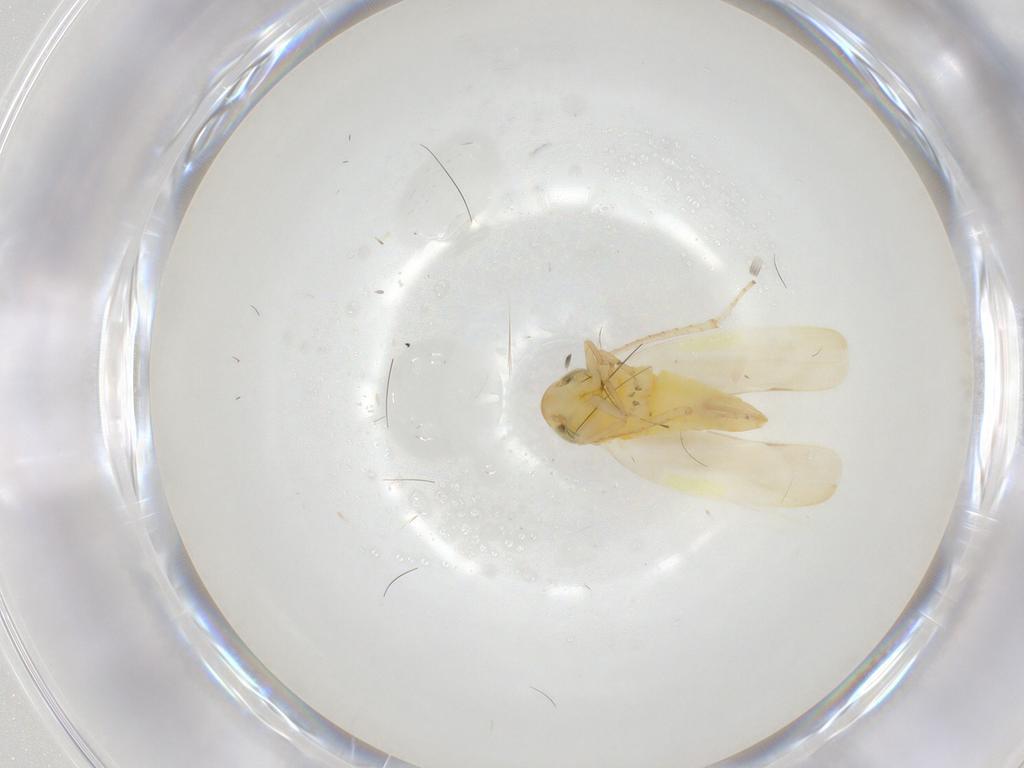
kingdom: Animalia
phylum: Arthropoda
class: Insecta
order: Hemiptera
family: Cicadellidae
